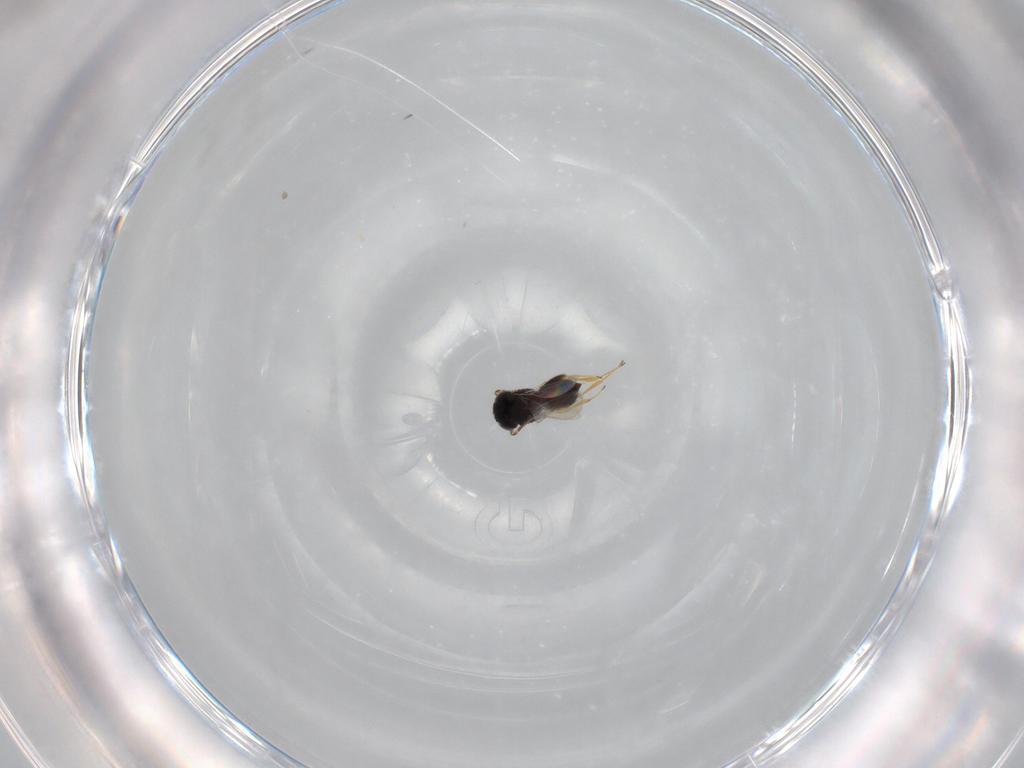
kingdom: Animalia
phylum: Arthropoda
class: Insecta
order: Hymenoptera
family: Scelionidae
